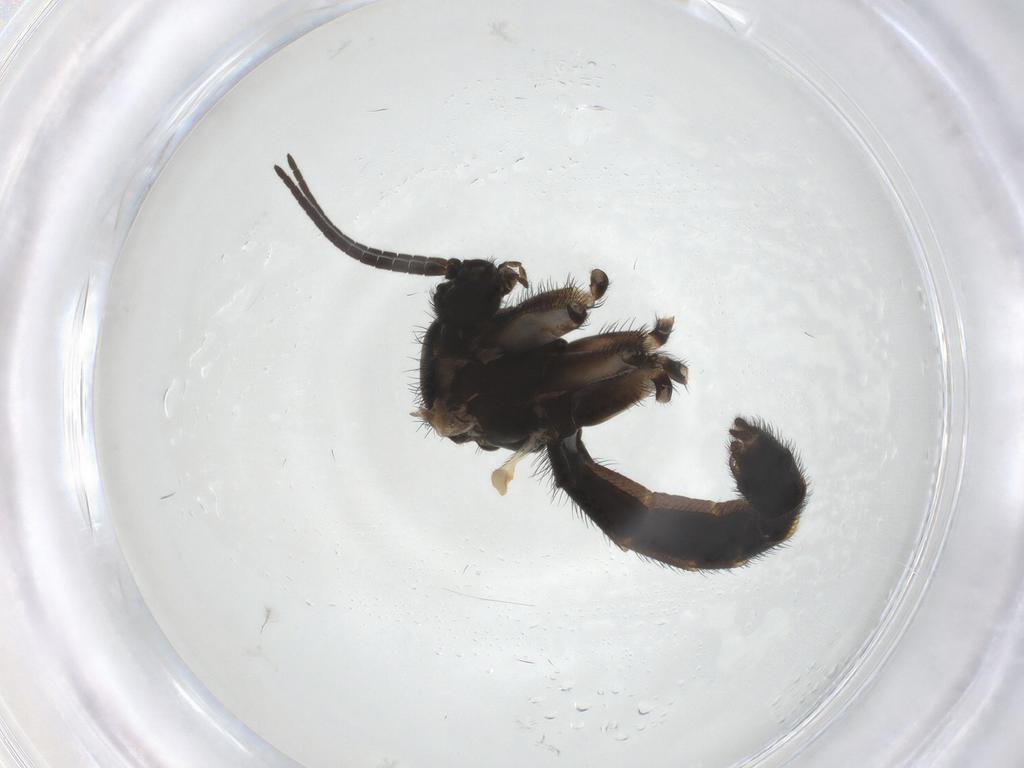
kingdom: Animalia
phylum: Arthropoda
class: Insecta
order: Diptera
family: Keroplatidae
